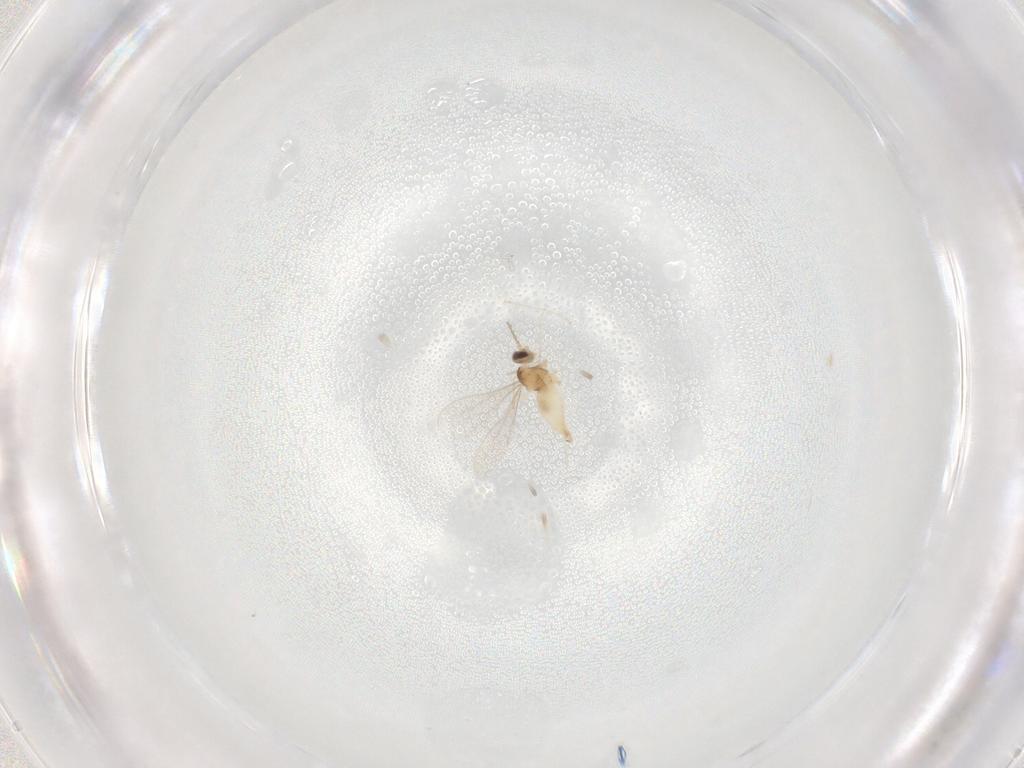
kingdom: Animalia
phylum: Arthropoda
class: Insecta
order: Diptera
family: Cecidomyiidae
